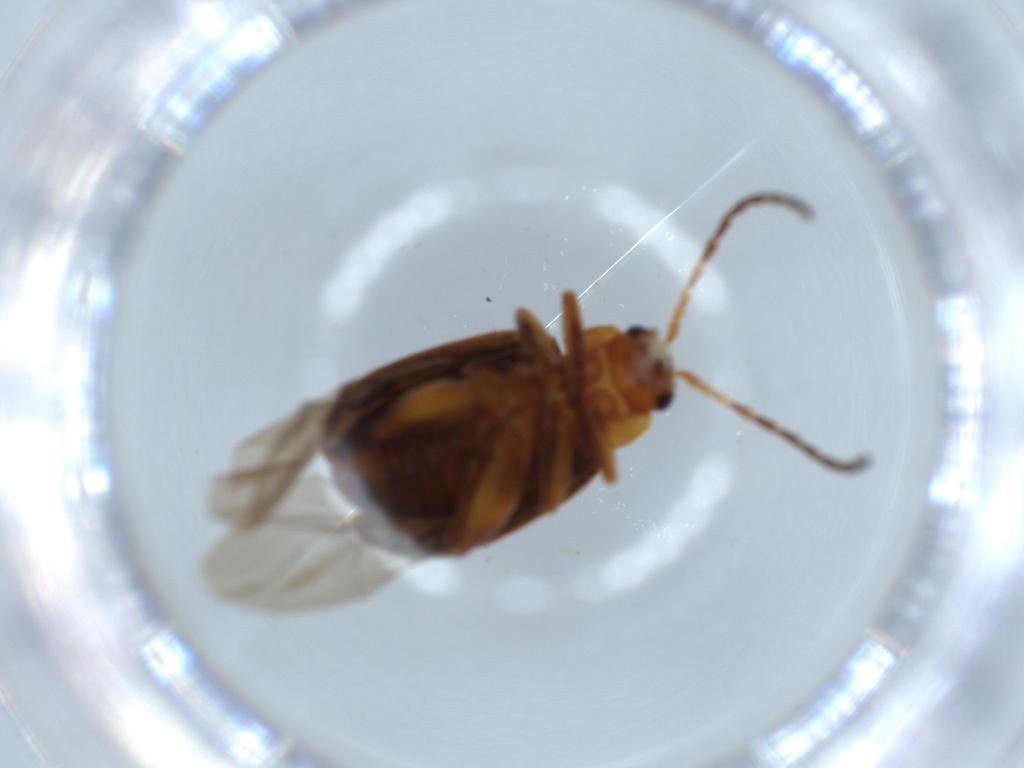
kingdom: Animalia
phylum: Arthropoda
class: Insecta
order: Coleoptera
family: Chrysomelidae
